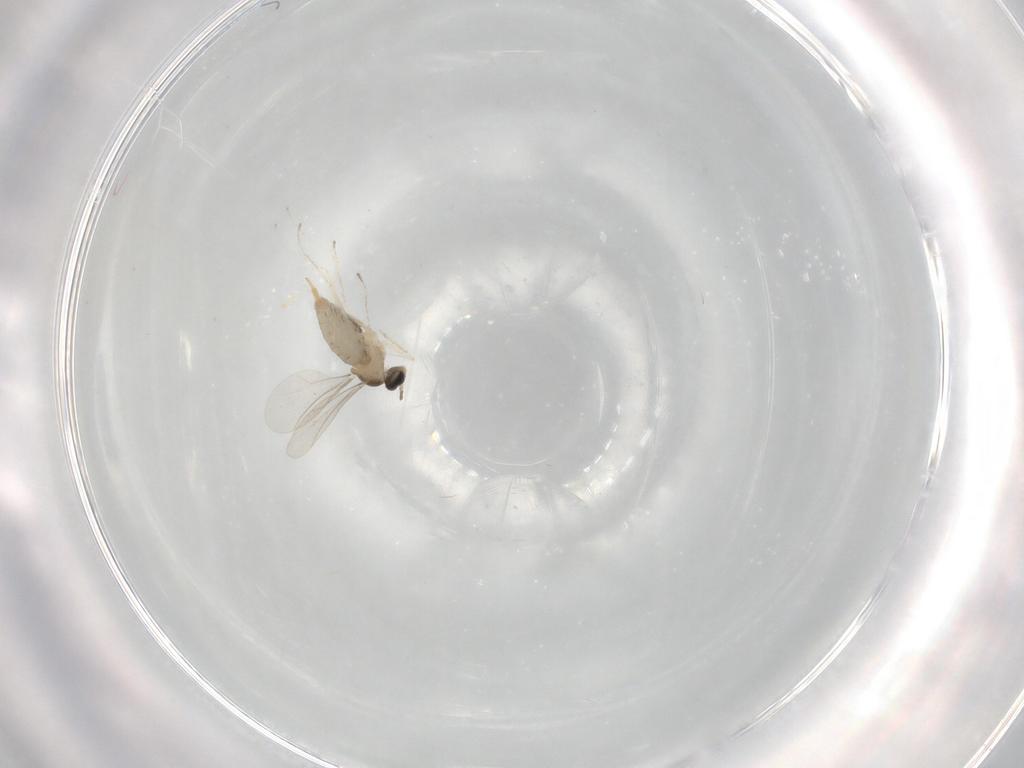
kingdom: Animalia
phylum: Arthropoda
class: Insecta
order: Diptera
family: Cecidomyiidae
